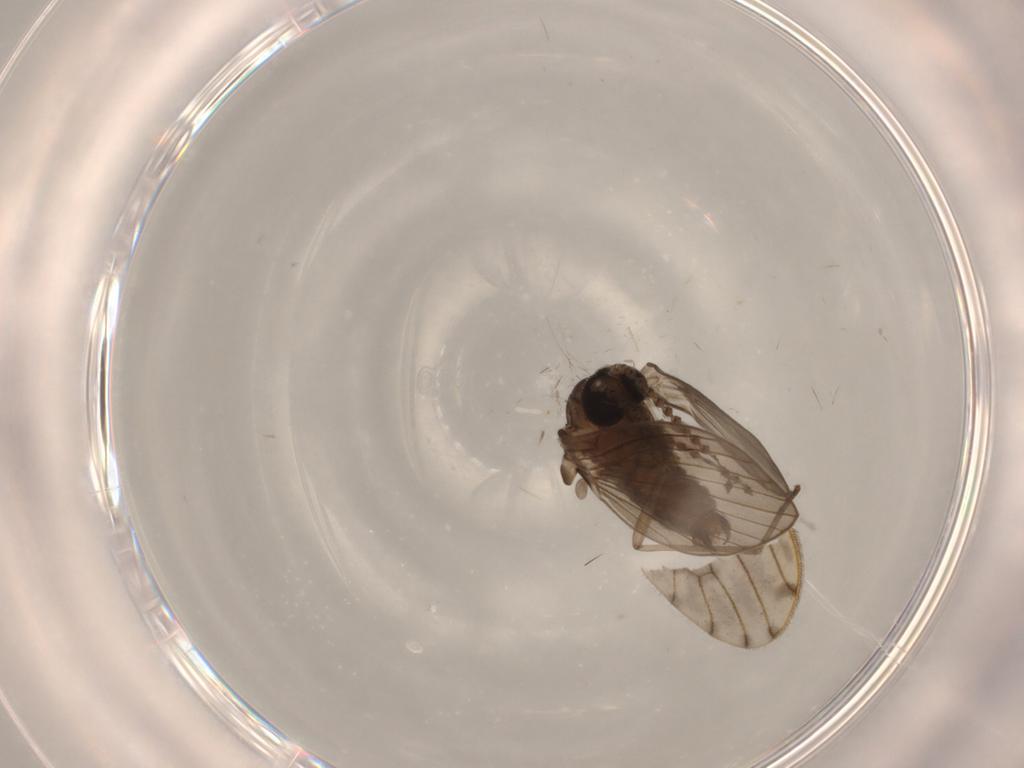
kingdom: Animalia
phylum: Arthropoda
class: Insecta
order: Diptera
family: Psychodidae
